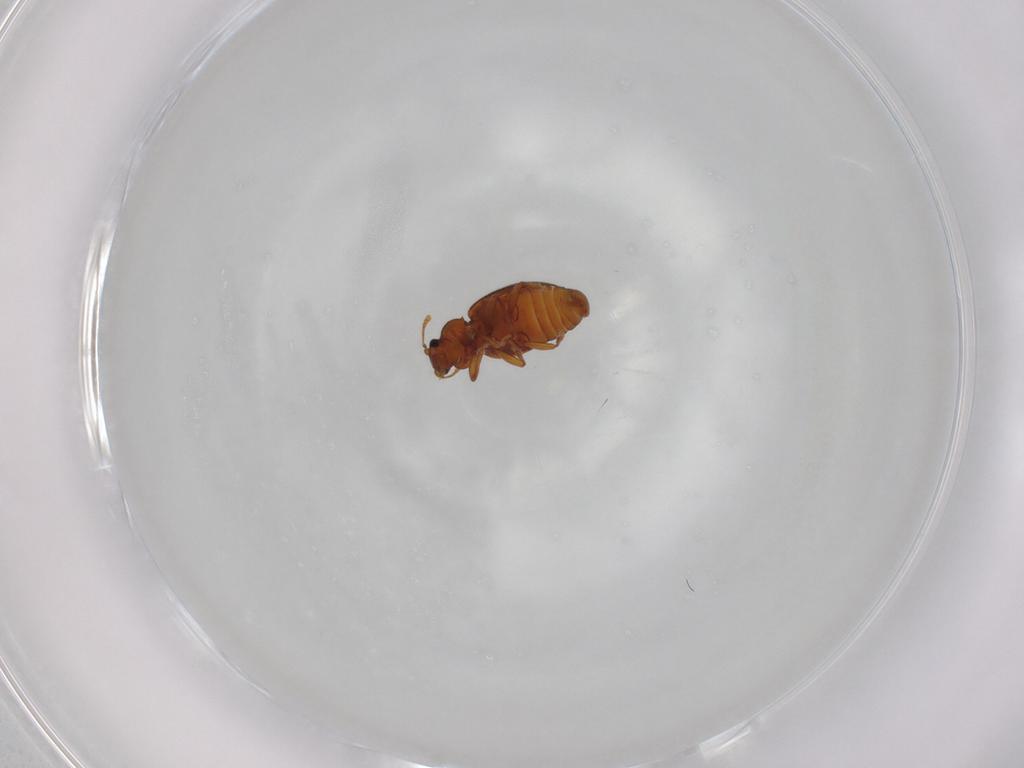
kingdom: Animalia
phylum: Arthropoda
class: Insecta
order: Coleoptera
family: Latridiidae
